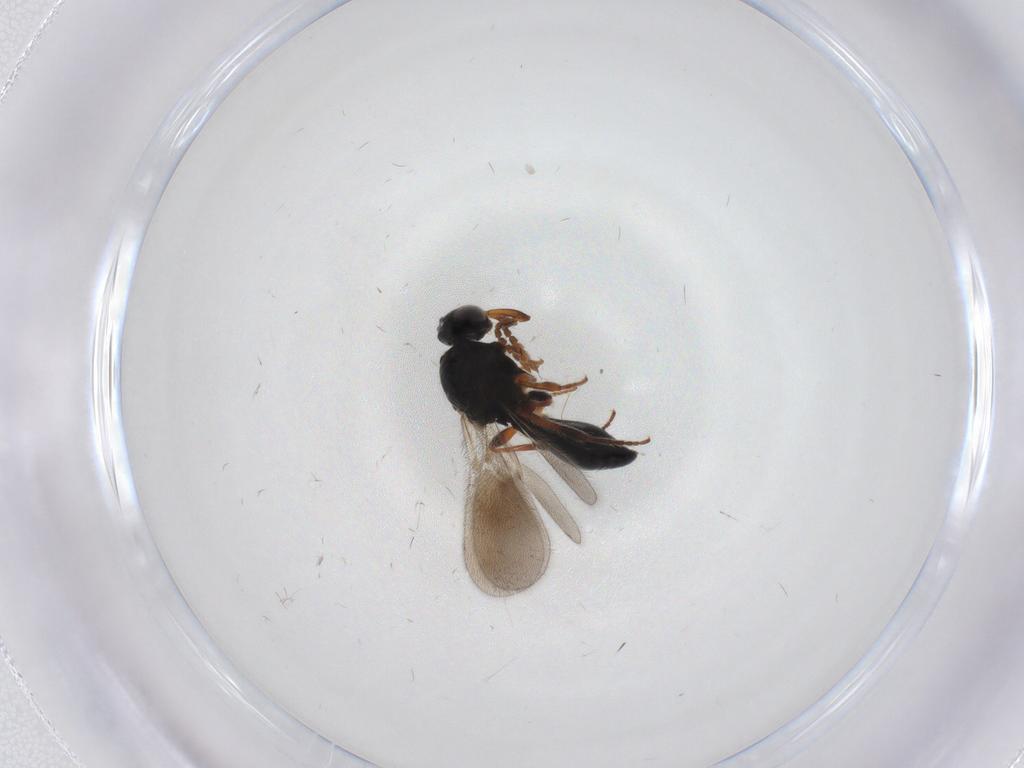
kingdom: Animalia
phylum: Arthropoda
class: Insecta
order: Hymenoptera
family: Platygastridae
